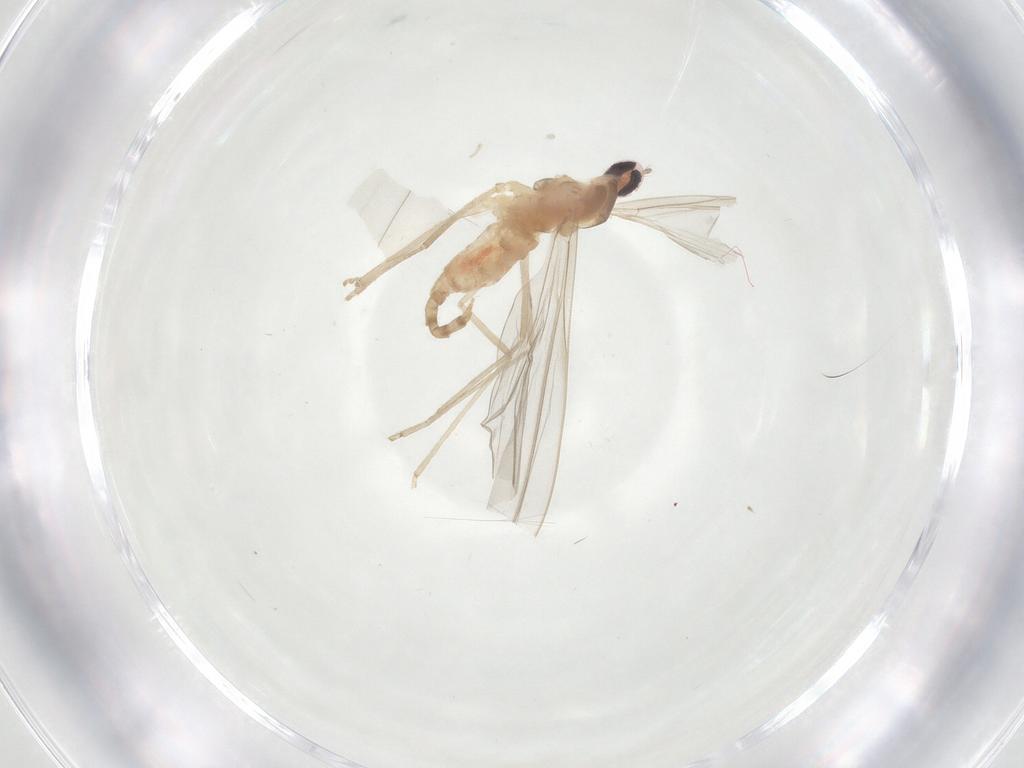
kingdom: Animalia
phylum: Arthropoda
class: Insecta
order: Diptera
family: Cecidomyiidae
